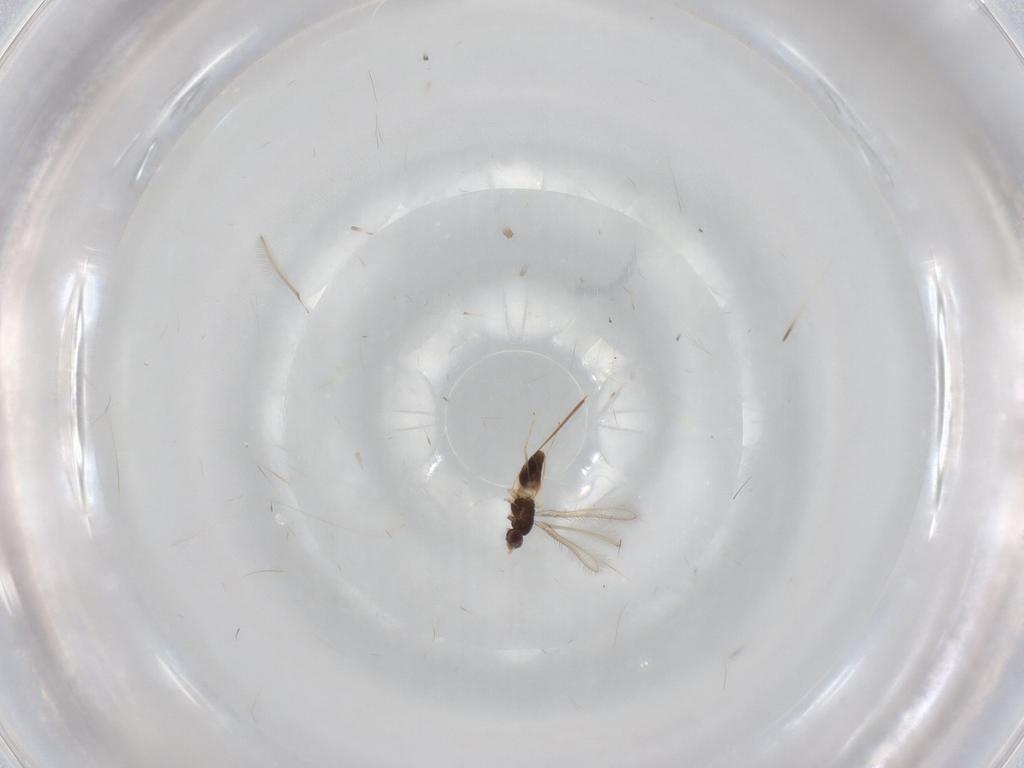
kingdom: Animalia
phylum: Arthropoda
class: Insecta
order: Hymenoptera
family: Mymaridae
